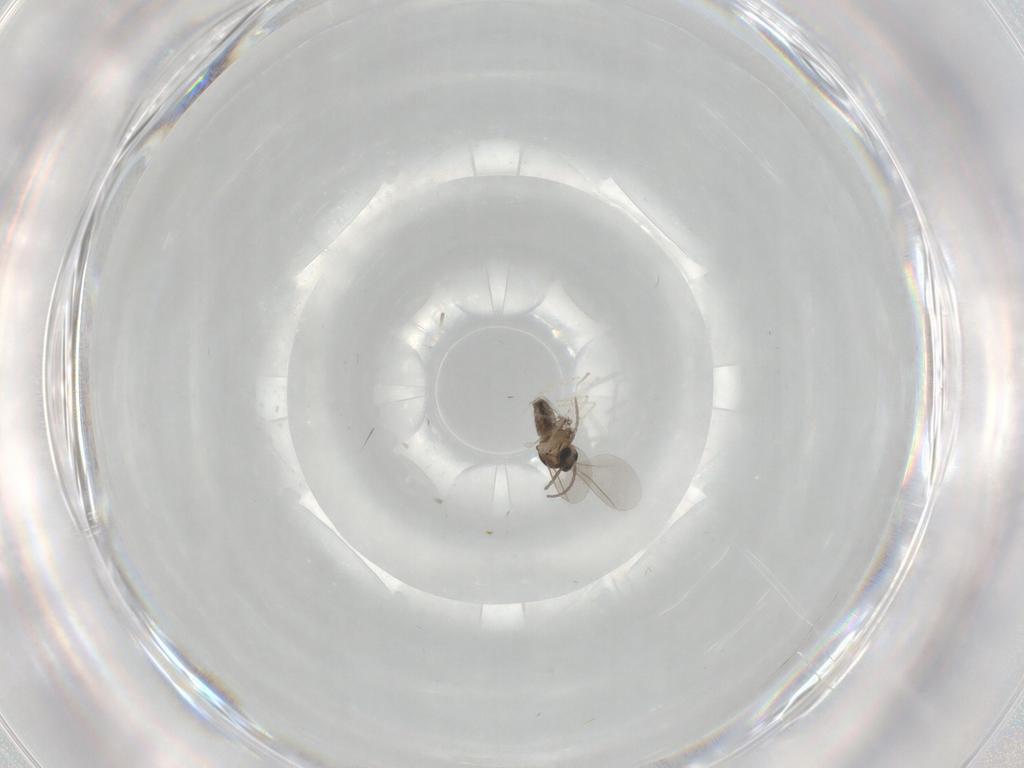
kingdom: Animalia
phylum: Arthropoda
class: Insecta
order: Diptera
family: Cecidomyiidae
